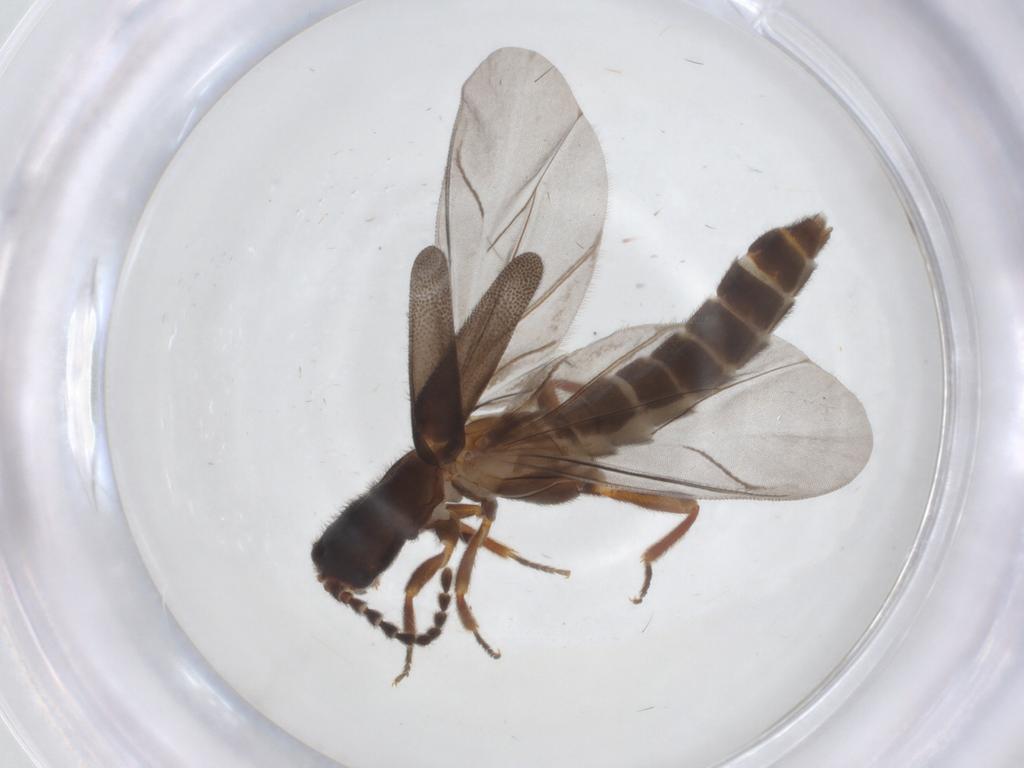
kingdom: Animalia
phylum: Arthropoda
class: Insecta
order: Coleoptera
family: Omethidae
